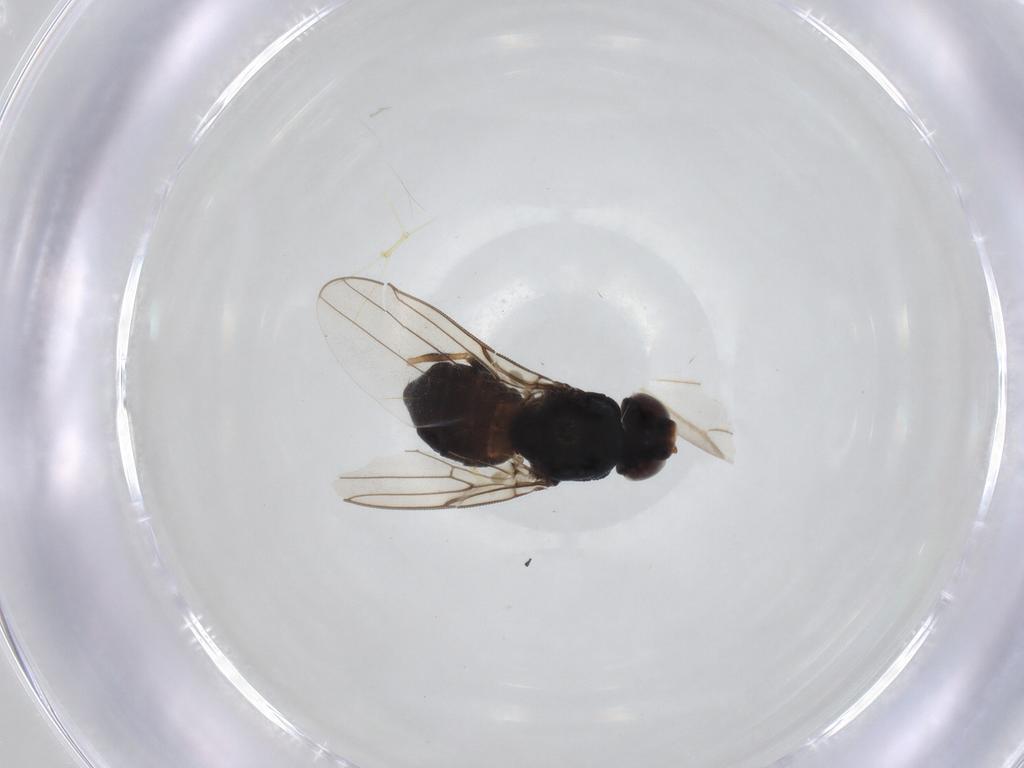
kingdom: Animalia
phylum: Arthropoda
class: Insecta
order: Diptera
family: Chloropidae
